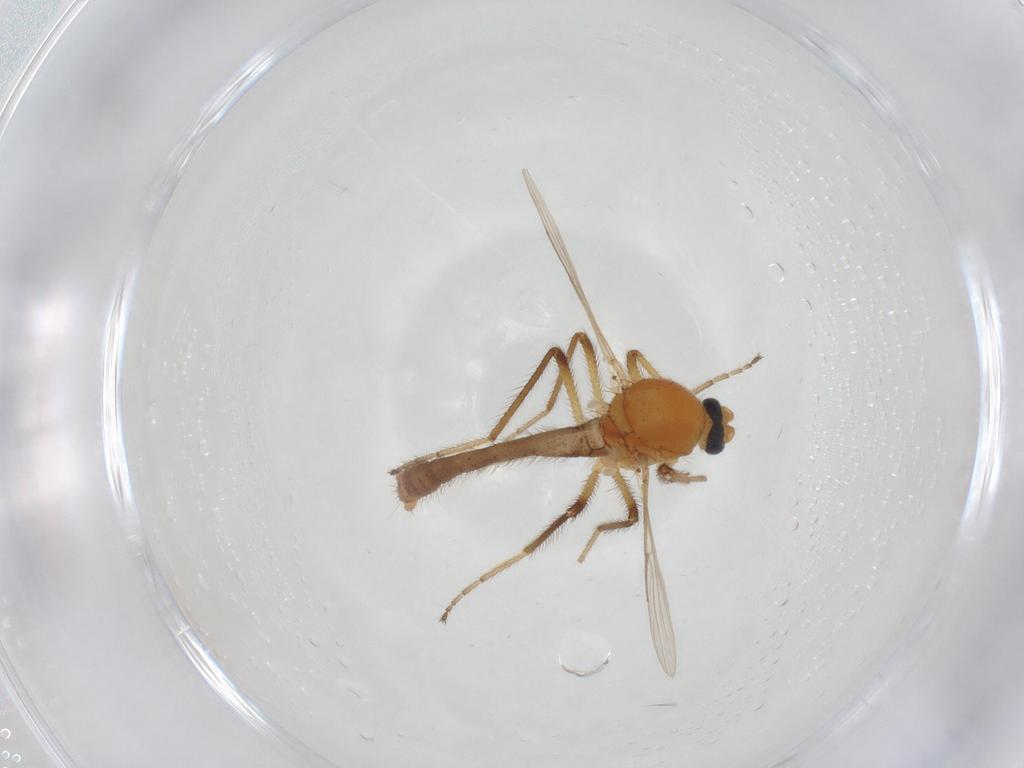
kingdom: Animalia
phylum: Arthropoda
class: Insecta
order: Diptera
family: Ceratopogonidae
